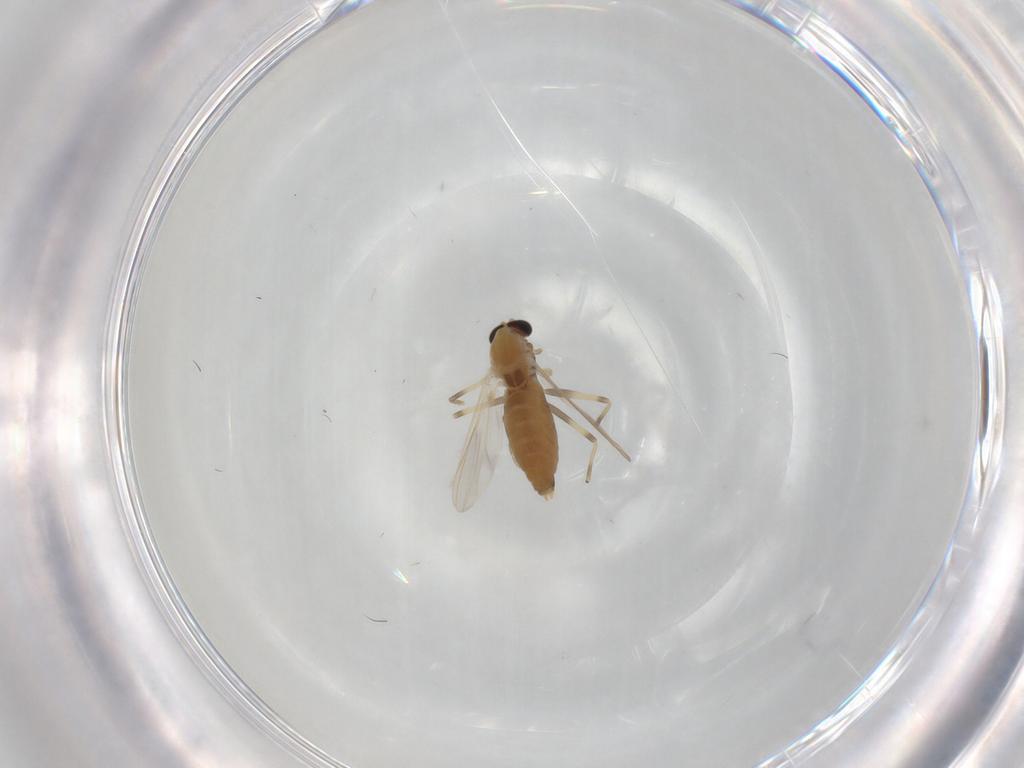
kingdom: Animalia
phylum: Arthropoda
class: Insecta
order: Diptera
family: Chironomidae
